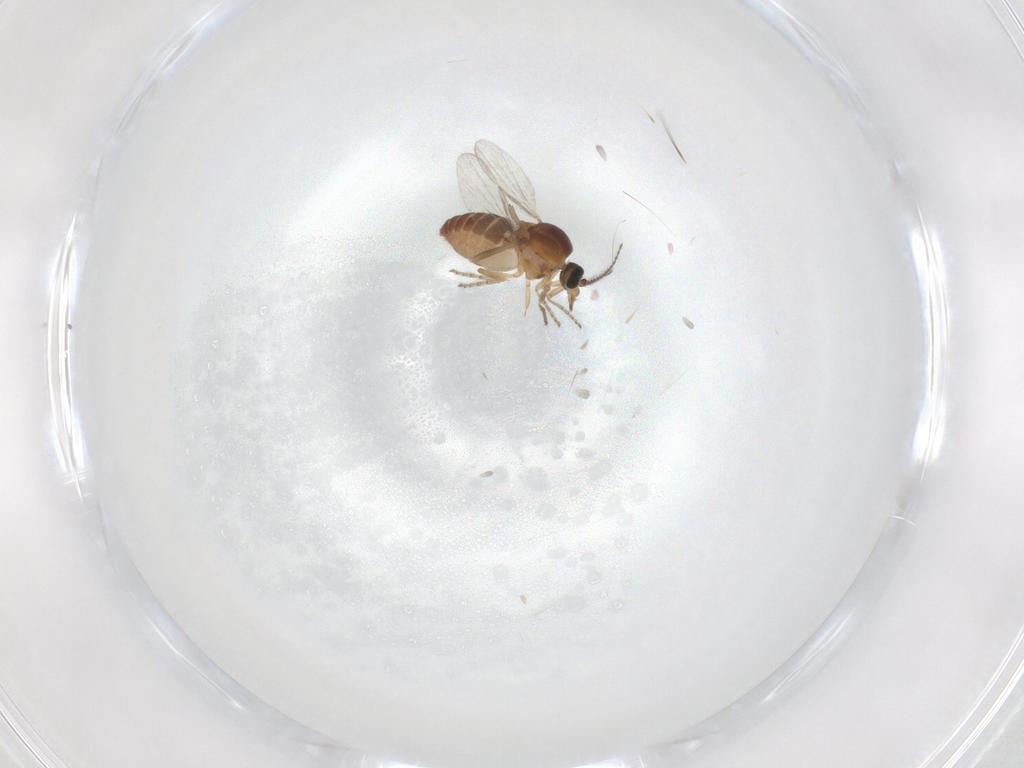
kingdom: Animalia
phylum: Arthropoda
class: Insecta
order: Diptera
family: Ceratopogonidae
